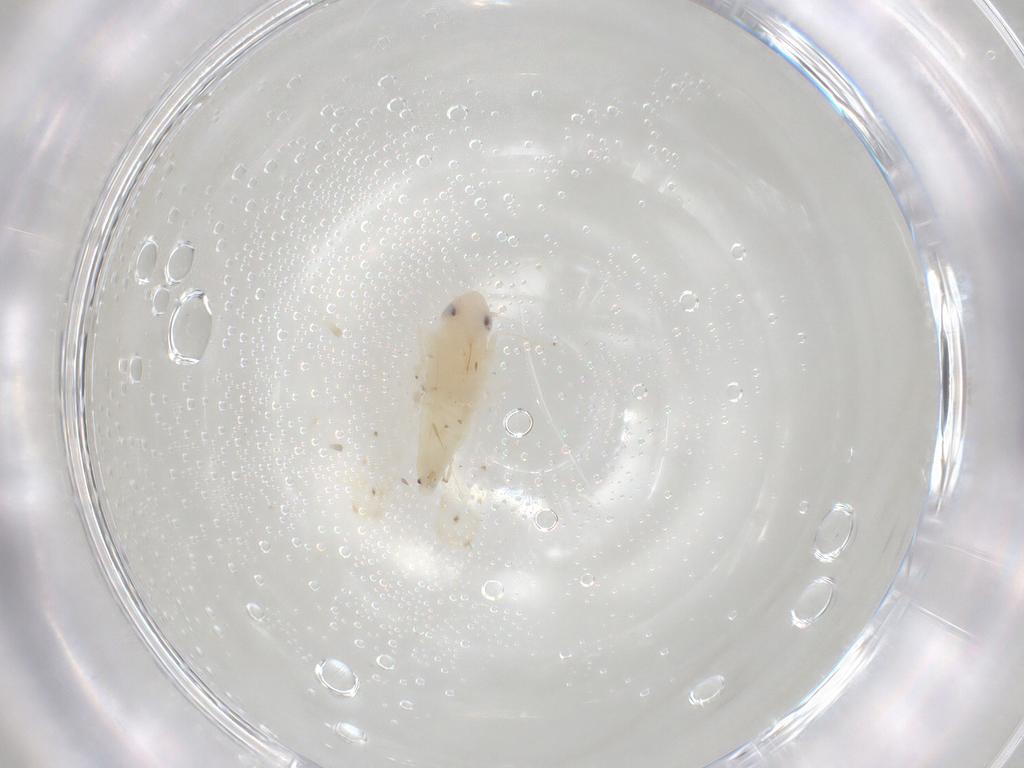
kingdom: Animalia
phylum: Arthropoda
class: Insecta
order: Hemiptera
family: Cicadellidae
